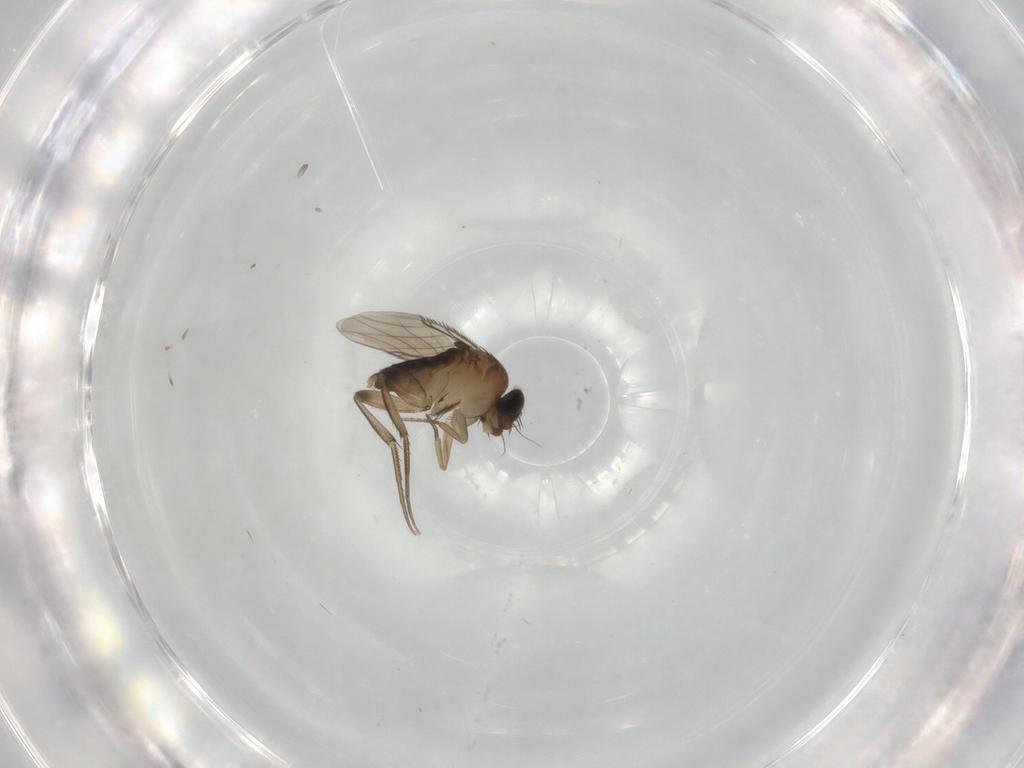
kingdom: Animalia
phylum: Arthropoda
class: Insecta
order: Diptera
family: Phoridae
